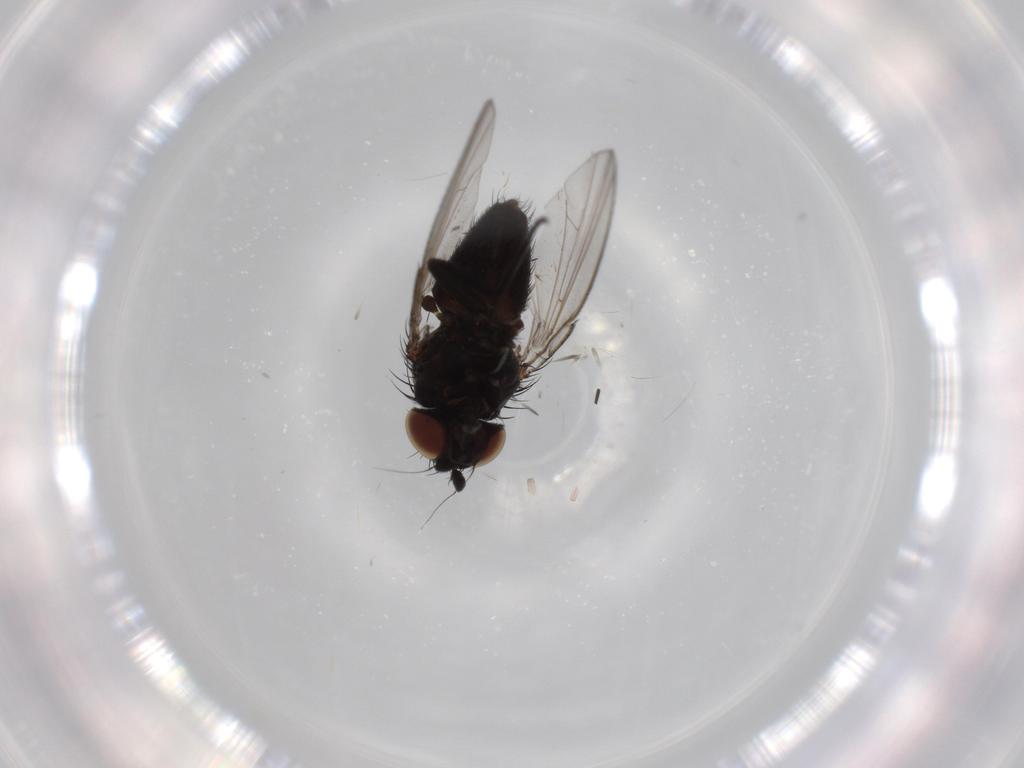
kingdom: Animalia
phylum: Arthropoda
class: Insecta
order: Diptera
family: Phoridae
